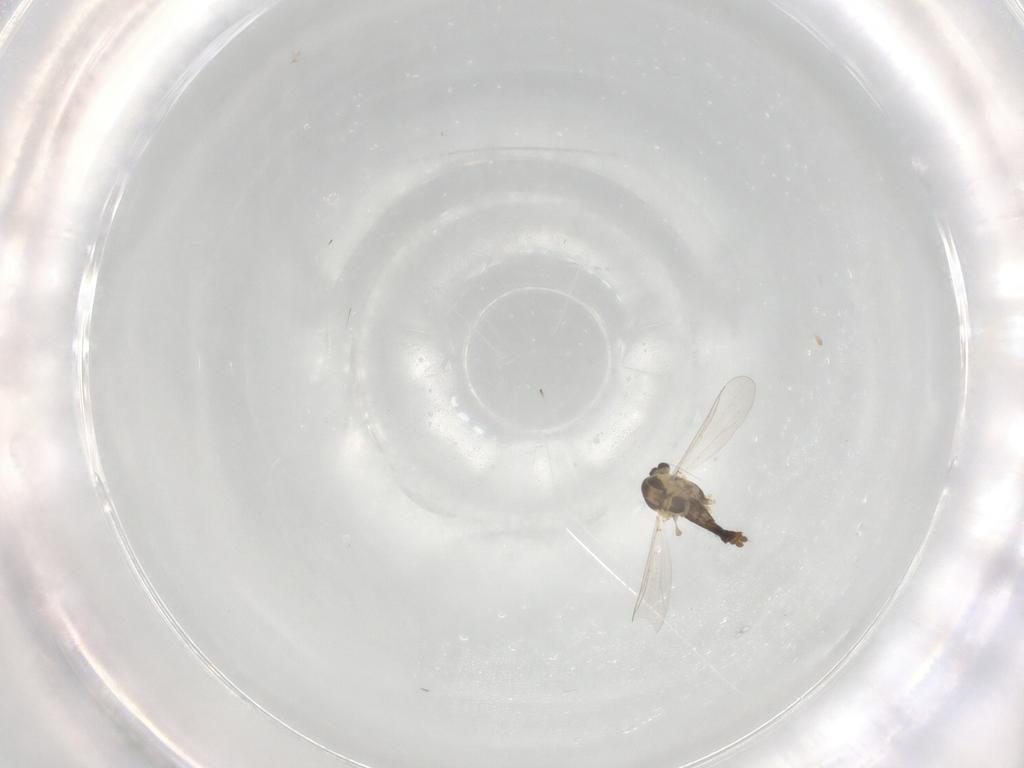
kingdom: Animalia
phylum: Arthropoda
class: Insecta
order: Diptera
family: Chironomidae
